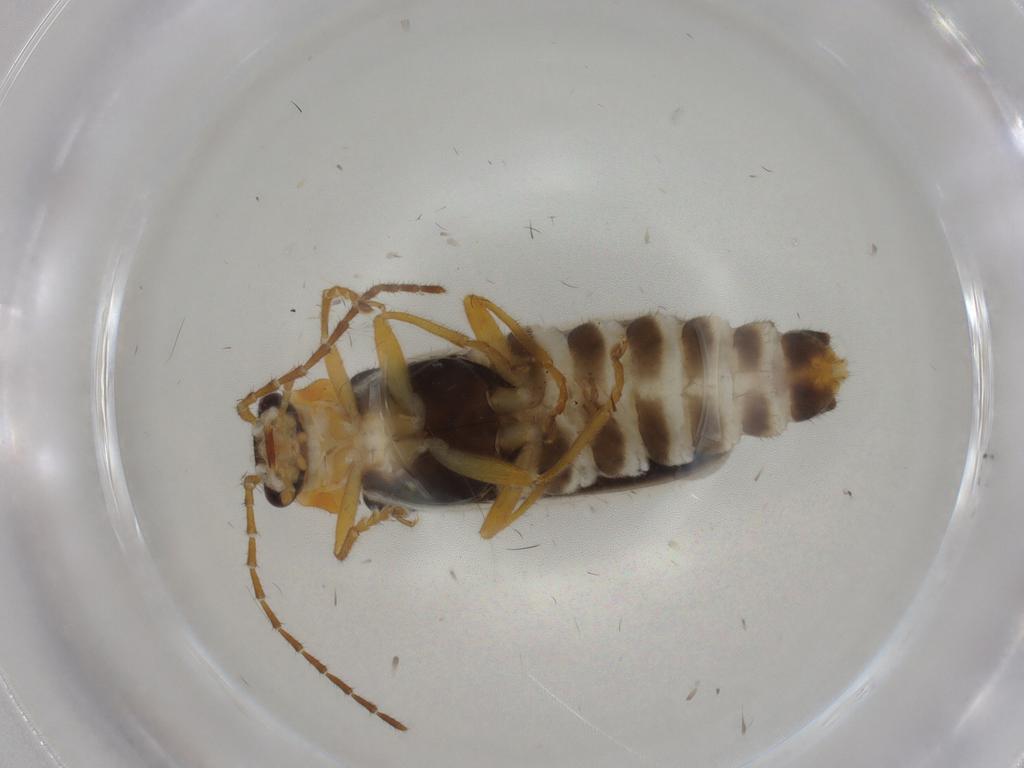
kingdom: Animalia
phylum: Arthropoda
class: Insecta
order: Coleoptera
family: Cantharidae
